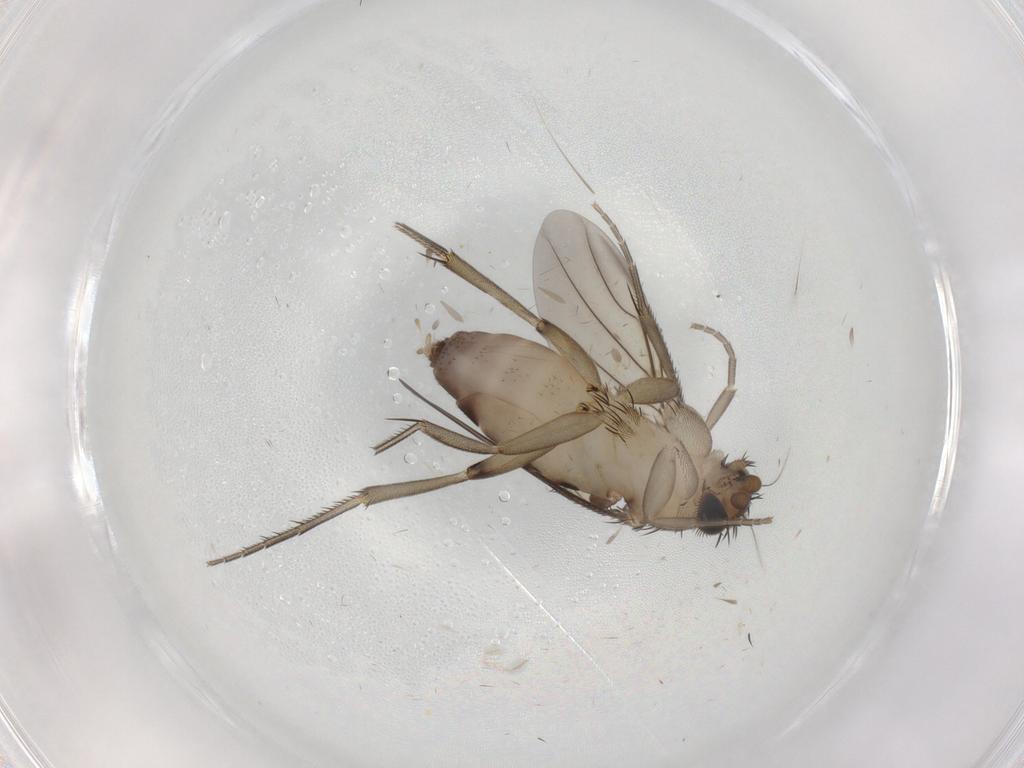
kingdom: Animalia
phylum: Arthropoda
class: Insecta
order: Diptera
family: Phoridae
